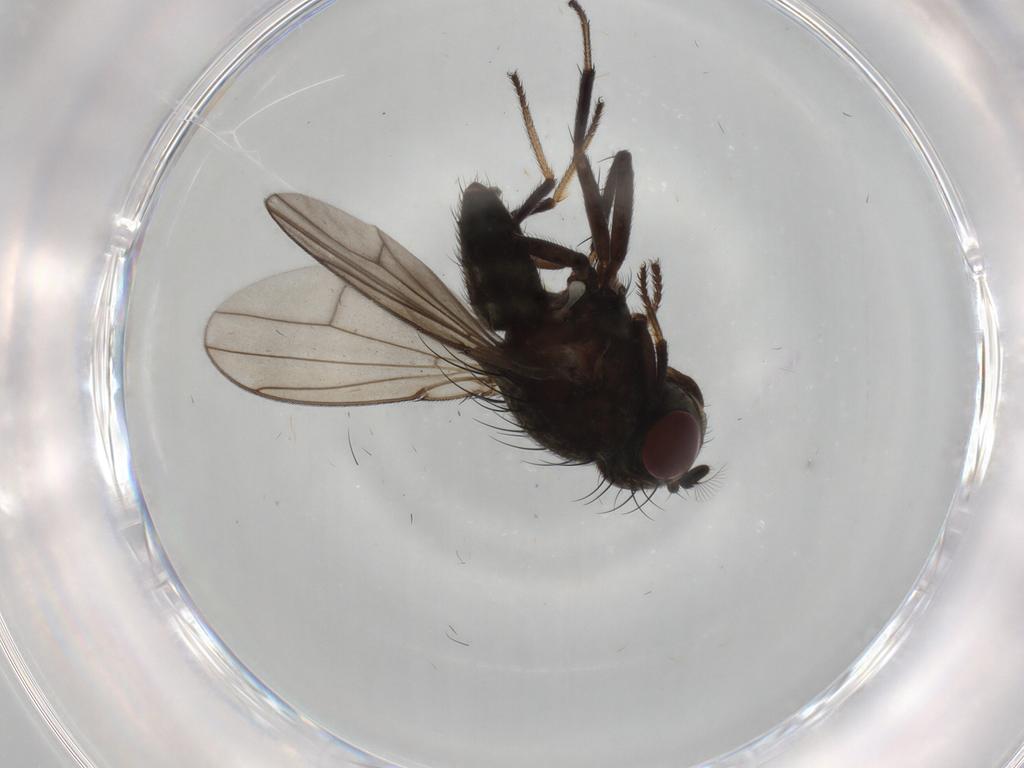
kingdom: Animalia
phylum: Arthropoda
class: Insecta
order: Diptera
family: Ephydridae
